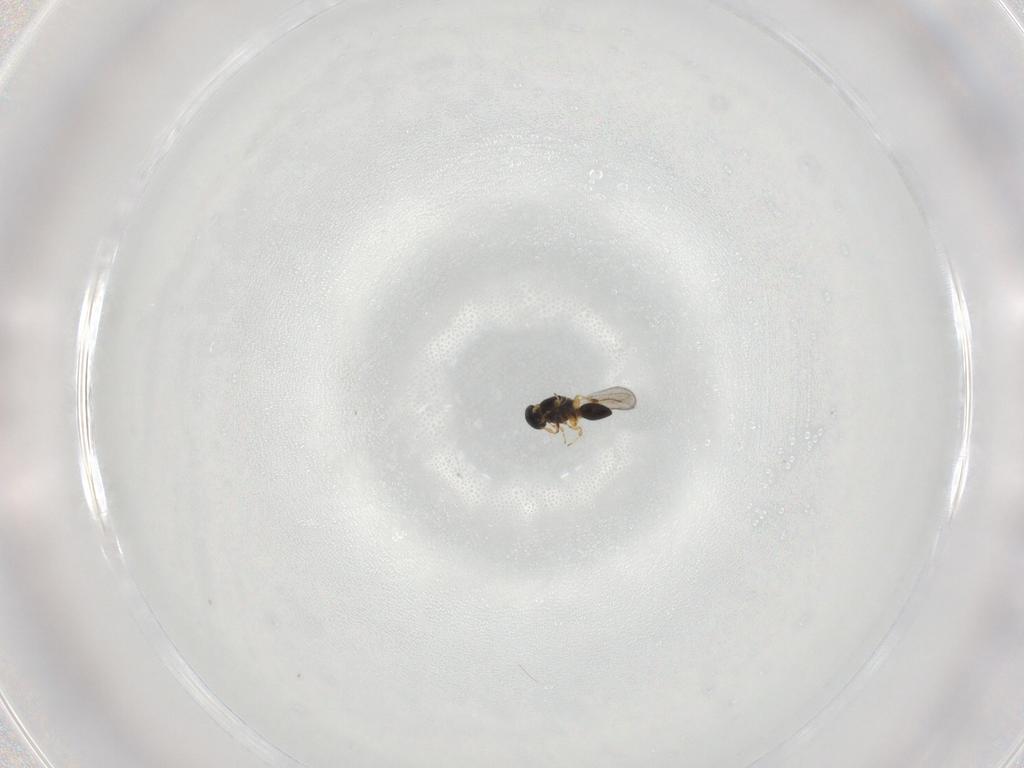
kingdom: Animalia
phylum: Arthropoda
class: Insecta
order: Hymenoptera
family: Platygastridae
